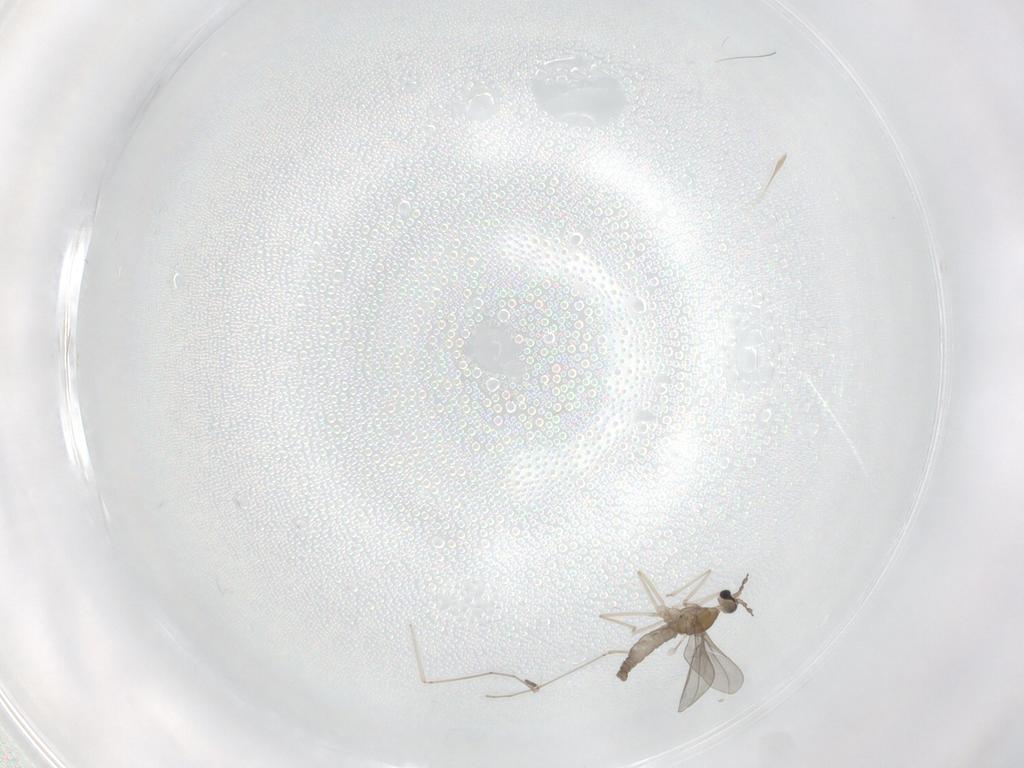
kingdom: Animalia
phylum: Arthropoda
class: Insecta
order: Diptera
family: Cecidomyiidae
